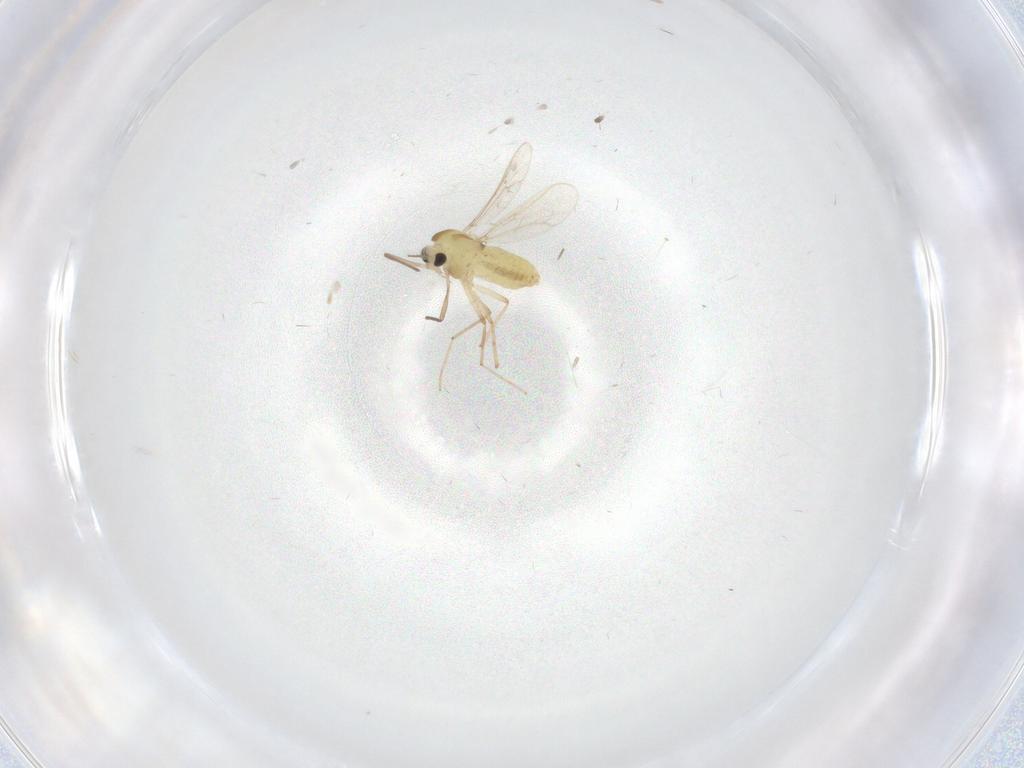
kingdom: Animalia
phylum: Arthropoda
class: Insecta
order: Diptera
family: Chironomidae
